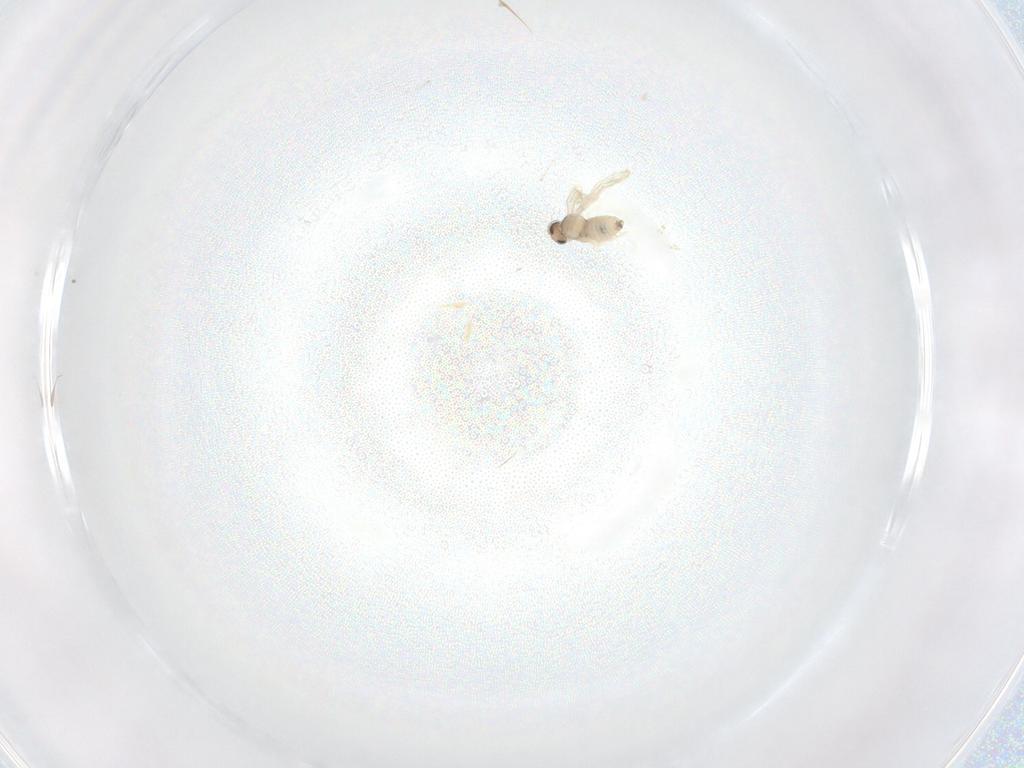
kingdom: Animalia
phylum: Arthropoda
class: Insecta
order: Diptera
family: Cecidomyiidae
